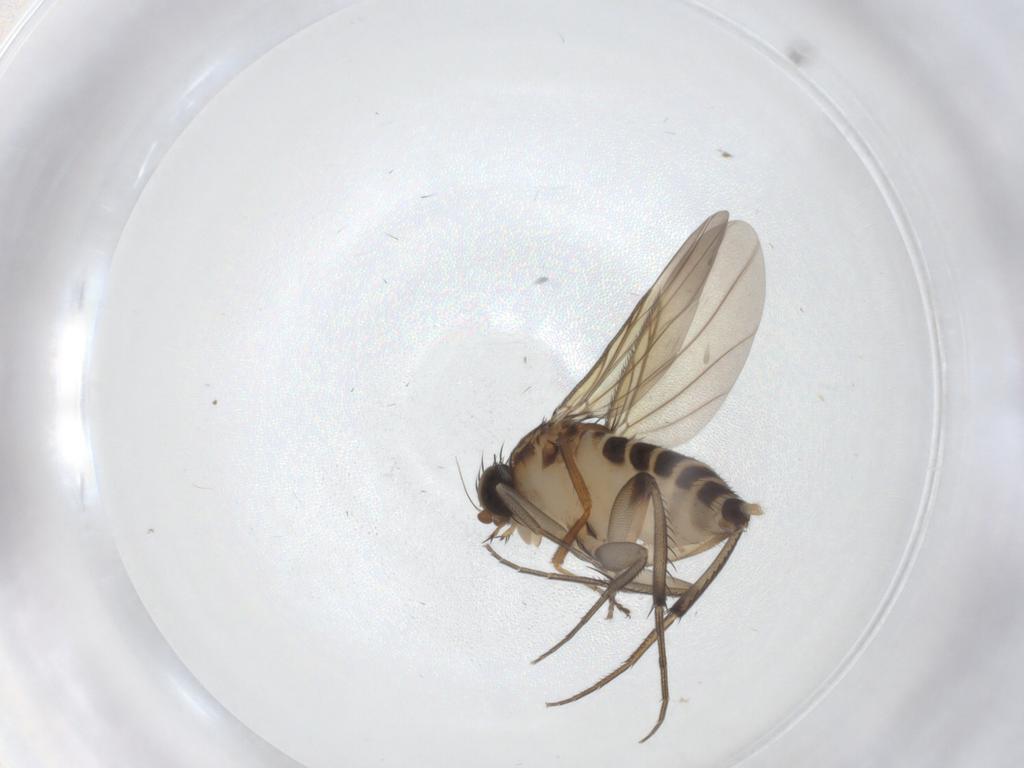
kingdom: Animalia
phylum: Arthropoda
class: Insecta
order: Diptera
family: Phoridae
